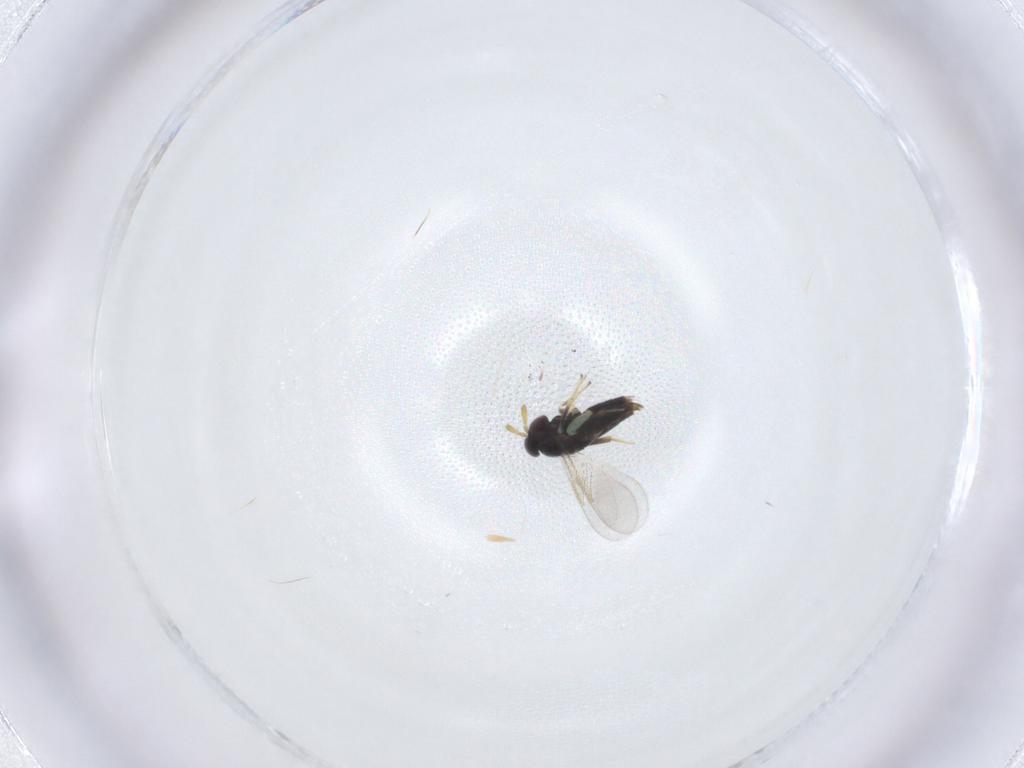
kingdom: Animalia
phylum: Arthropoda
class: Insecta
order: Hymenoptera
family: Aphelinidae
